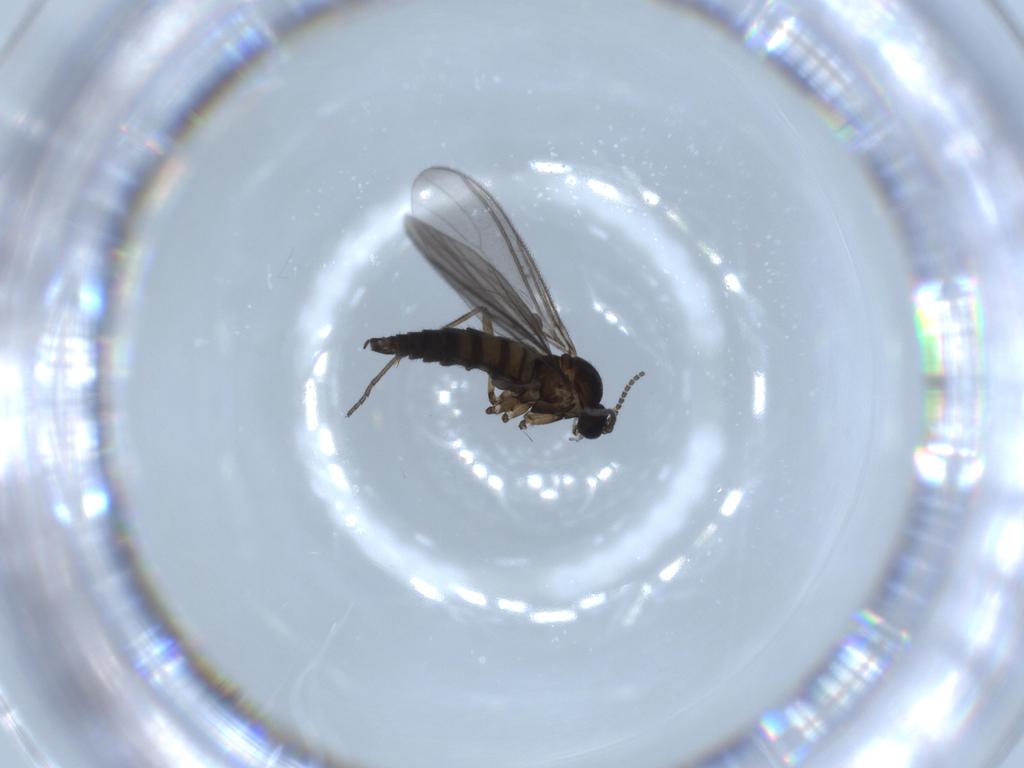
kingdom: Animalia
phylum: Arthropoda
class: Insecta
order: Diptera
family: Sciaridae
